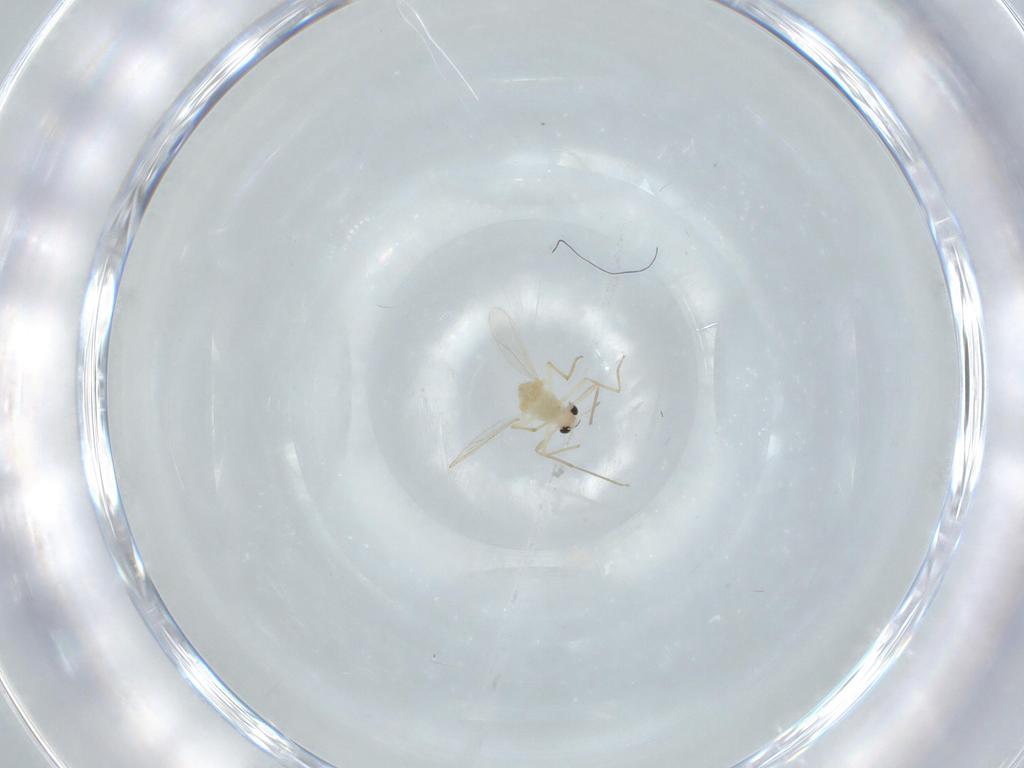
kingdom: Animalia
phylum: Arthropoda
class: Insecta
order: Diptera
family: Chironomidae
